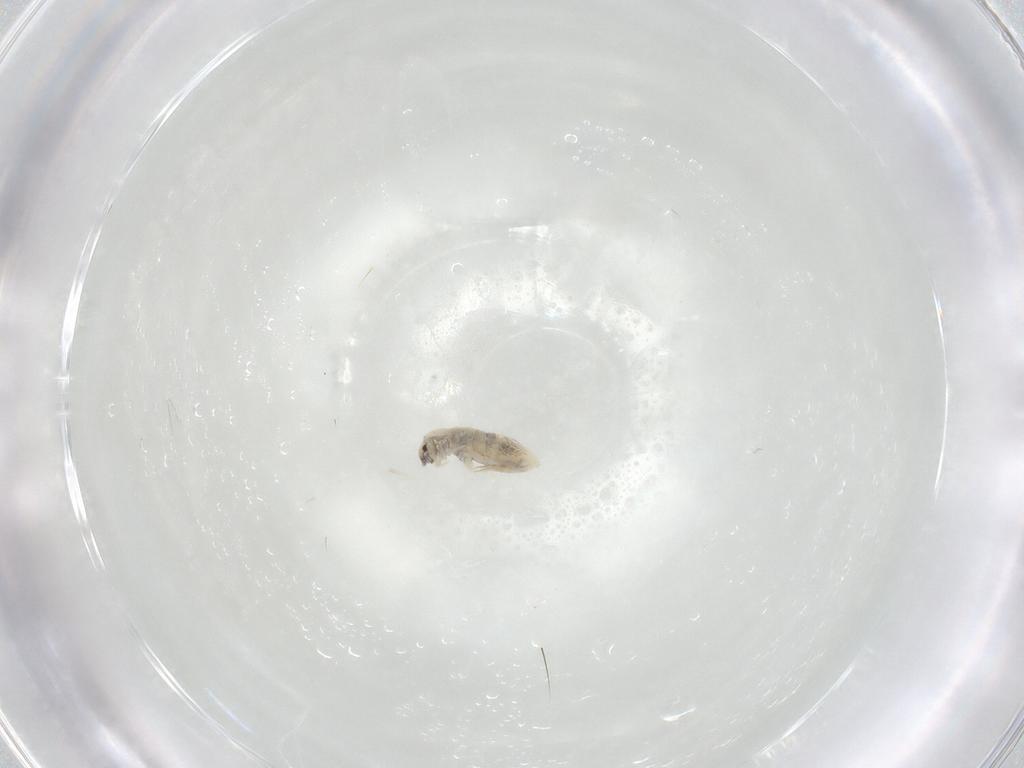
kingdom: Animalia
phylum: Arthropoda
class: Collembola
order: Entomobryomorpha
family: Entomobryidae
